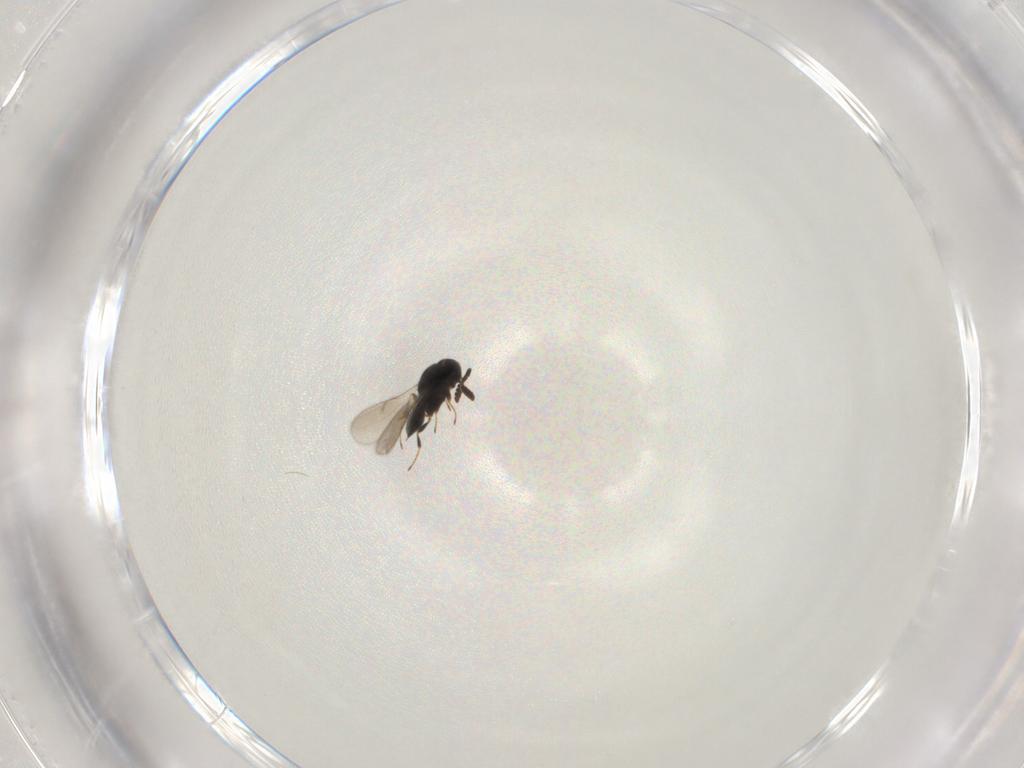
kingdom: Animalia
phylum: Arthropoda
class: Insecta
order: Hymenoptera
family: Scelionidae
